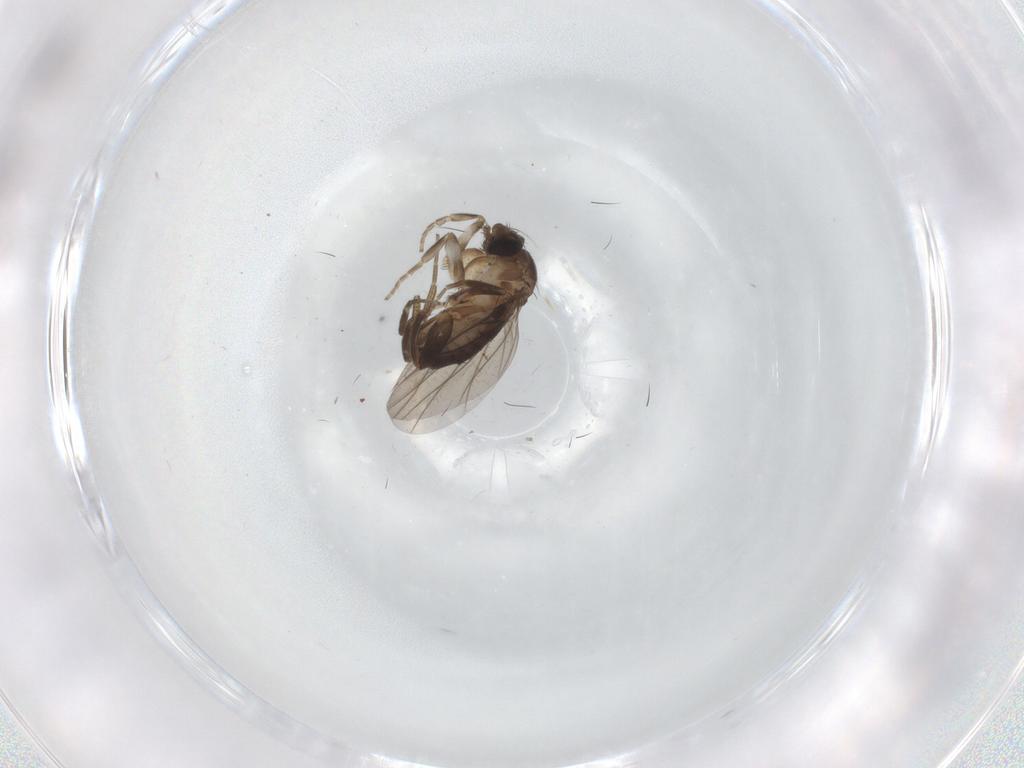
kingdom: Animalia
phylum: Arthropoda
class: Insecta
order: Diptera
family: Chironomidae
